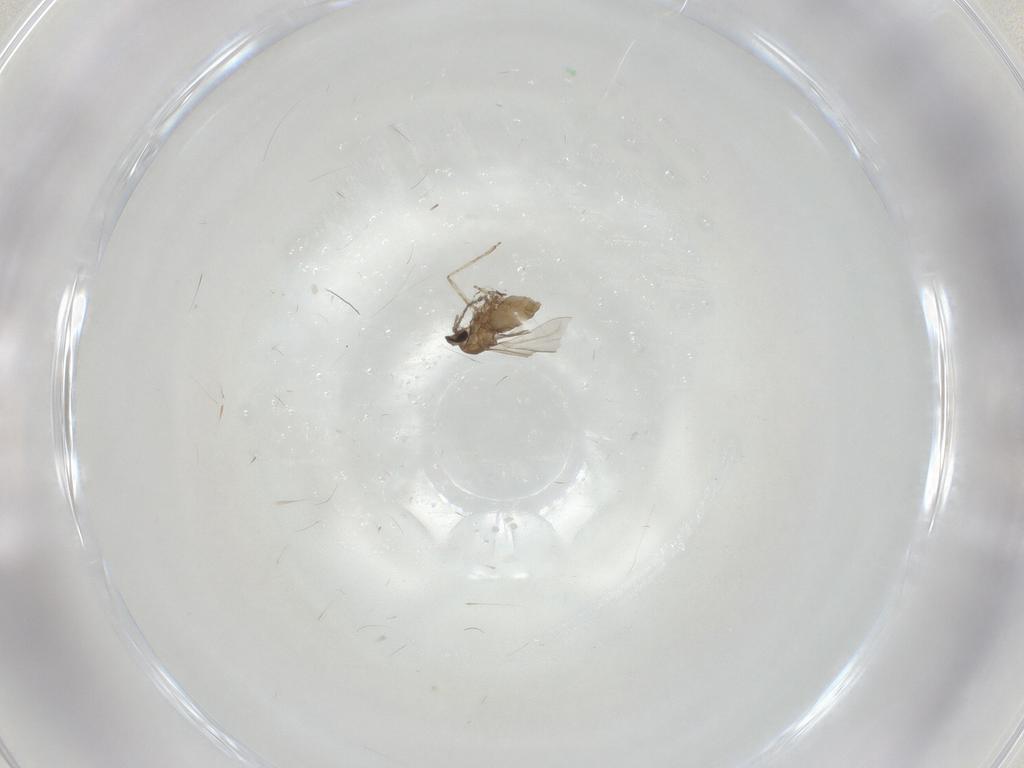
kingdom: Animalia
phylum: Arthropoda
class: Insecta
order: Diptera
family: Cecidomyiidae
